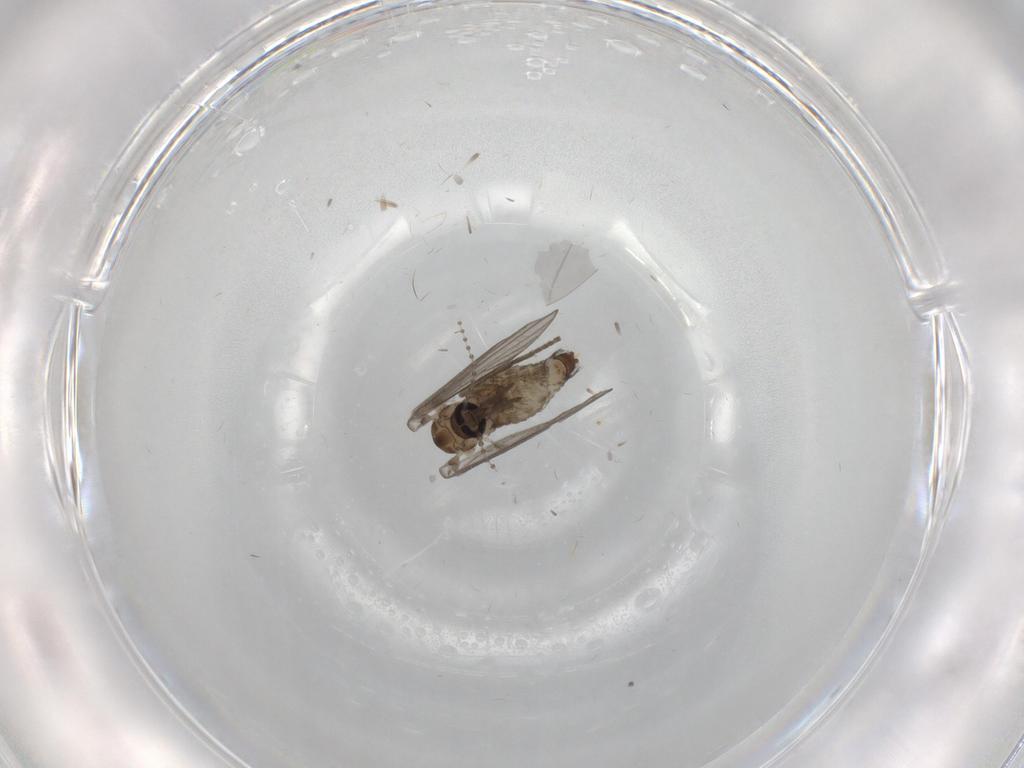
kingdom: Animalia
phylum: Arthropoda
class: Insecta
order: Diptera
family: Psychodidae
